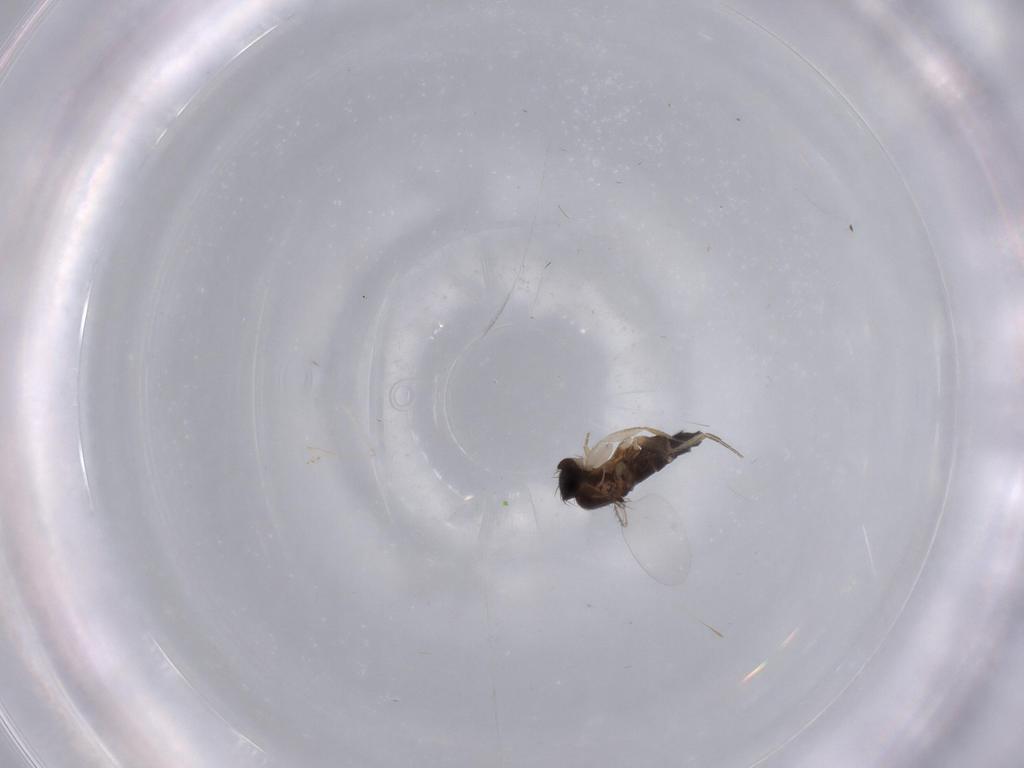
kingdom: Animalia
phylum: Arthropoda
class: Insecta
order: Diptera
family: Phoridae
